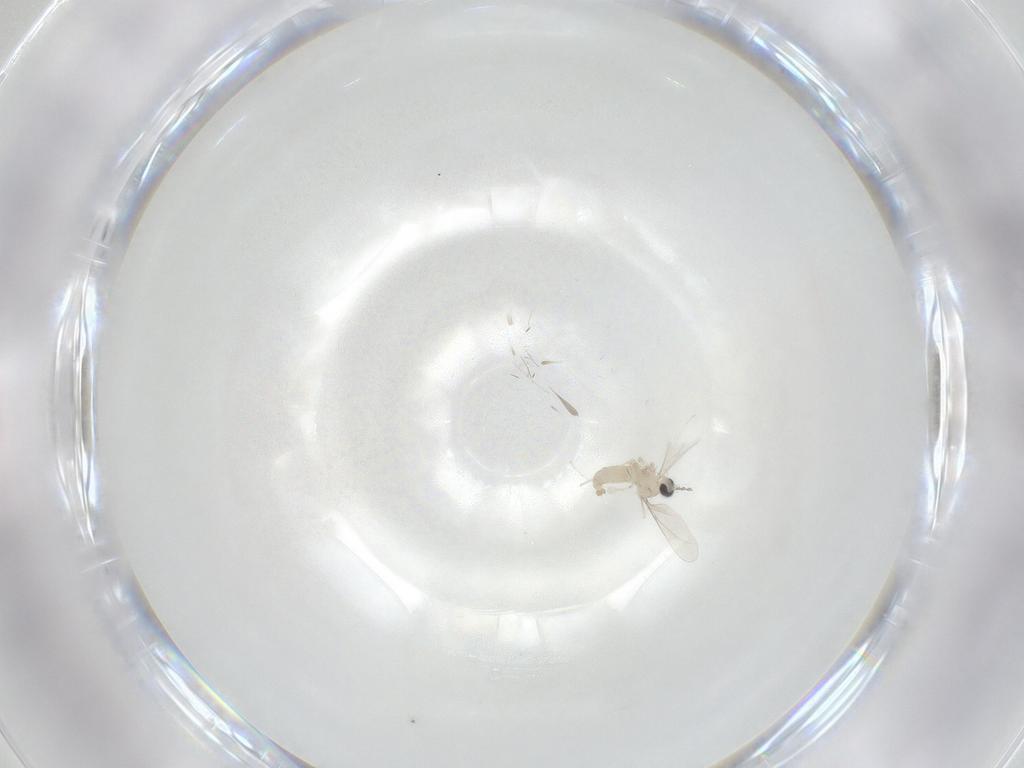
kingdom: Animalia
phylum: Arthropoda
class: Insecta
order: Diptera
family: Cecidomyiidae
